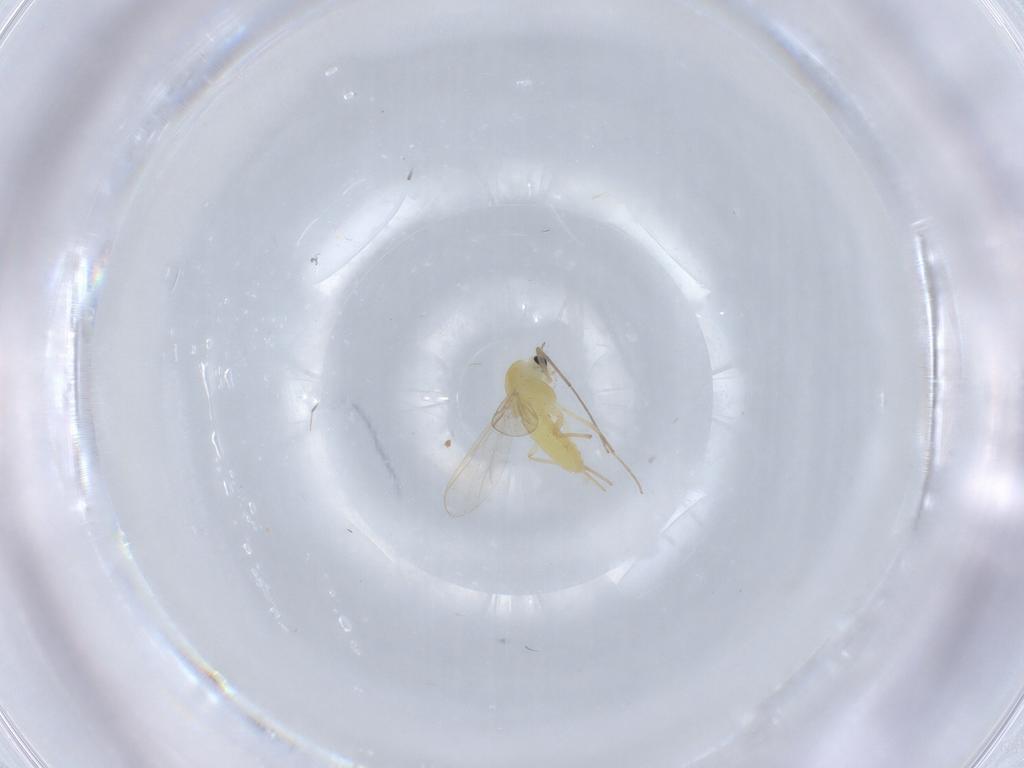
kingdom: Animalia
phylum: Arthropoda
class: Insecta
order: Diptera
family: Chironomidae
